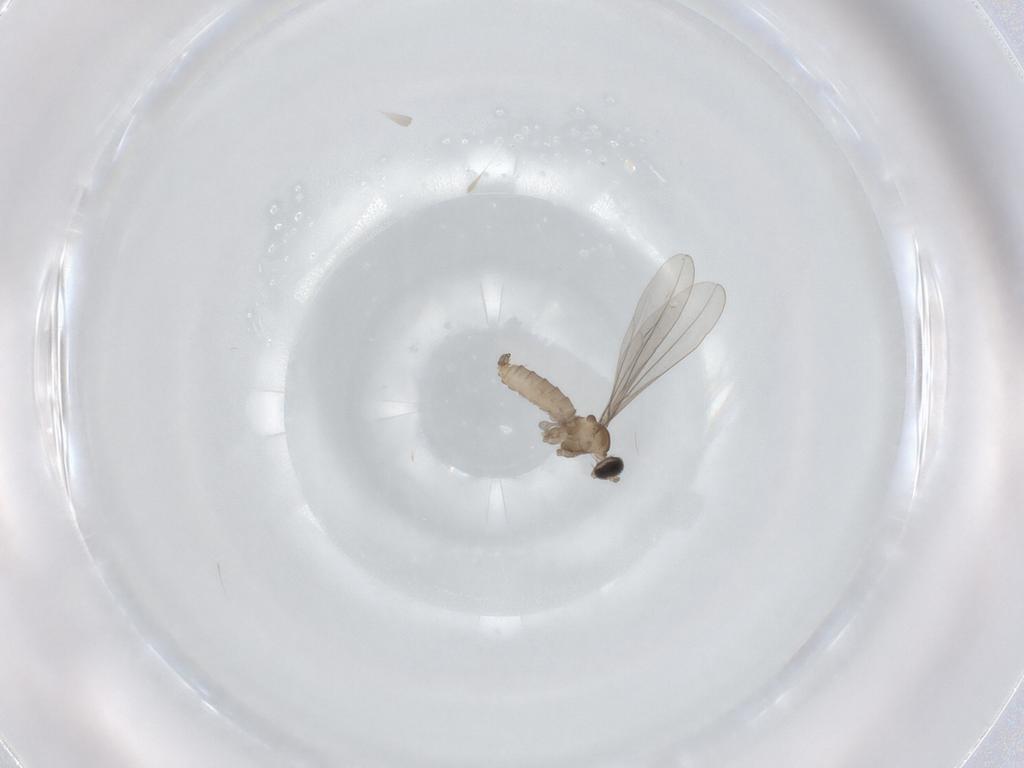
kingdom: Animalia
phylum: Arthropoda
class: Insecta
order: Diptera
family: Chironomidae
